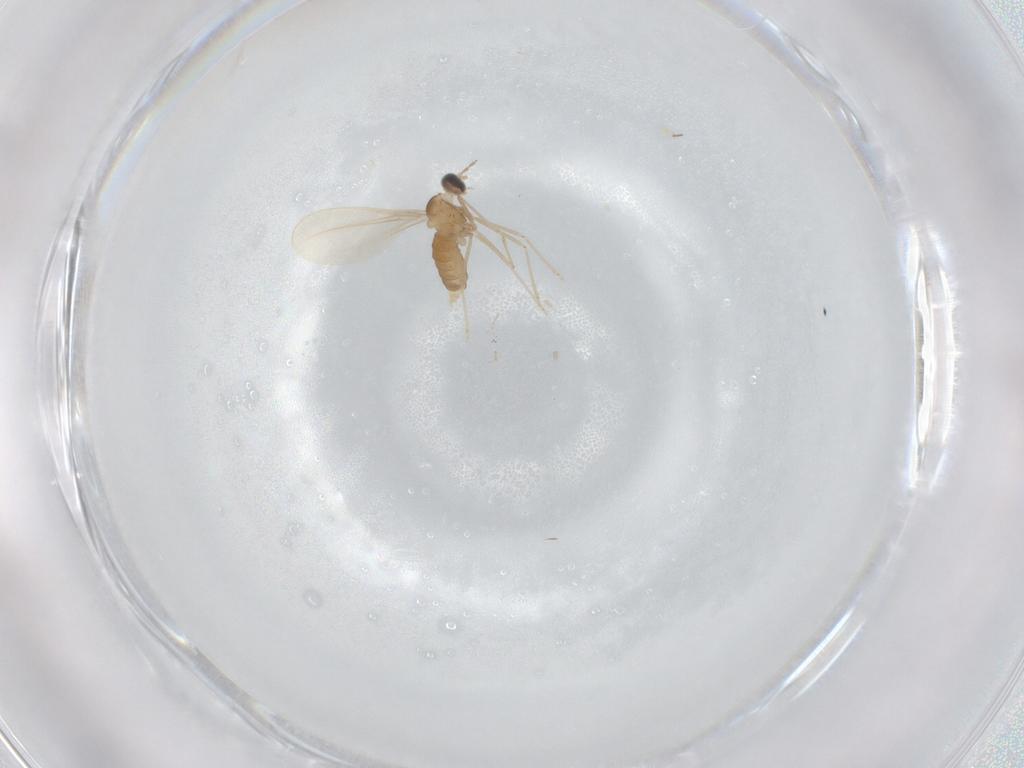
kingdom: Animalia
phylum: Arthropoda
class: Insecta
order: Diptera
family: Cecidomyiidae
